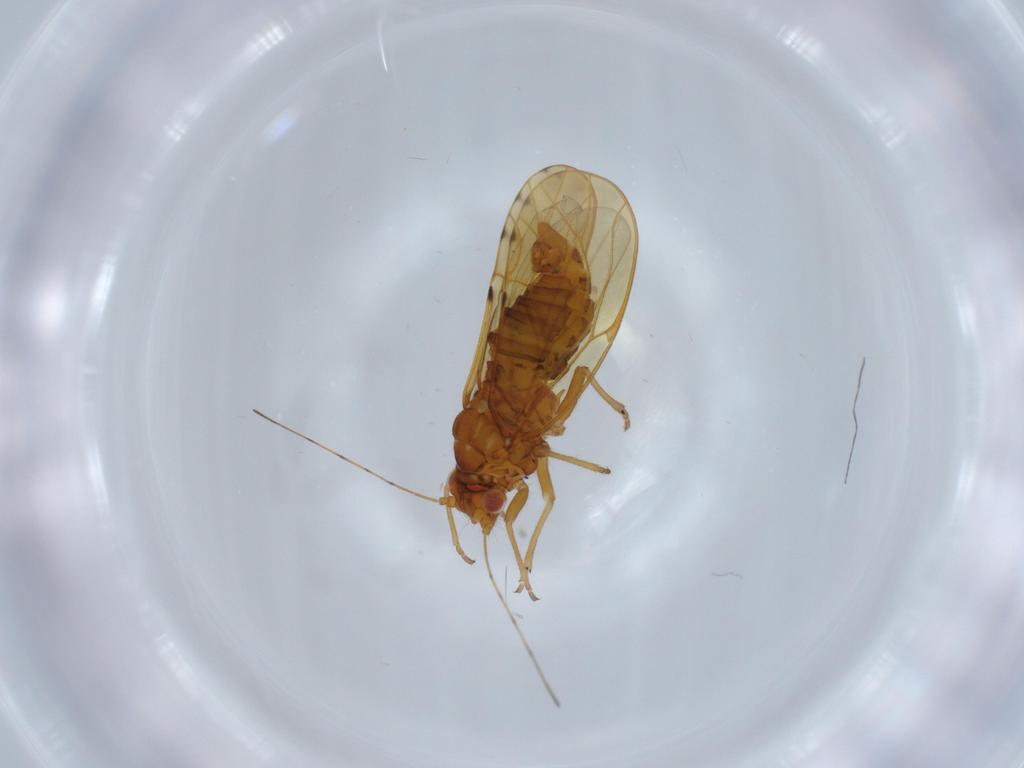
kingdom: Animalia
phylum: Arthropoda
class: Insecta
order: Hemiptera
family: Psylloidea_incertae_sedis
